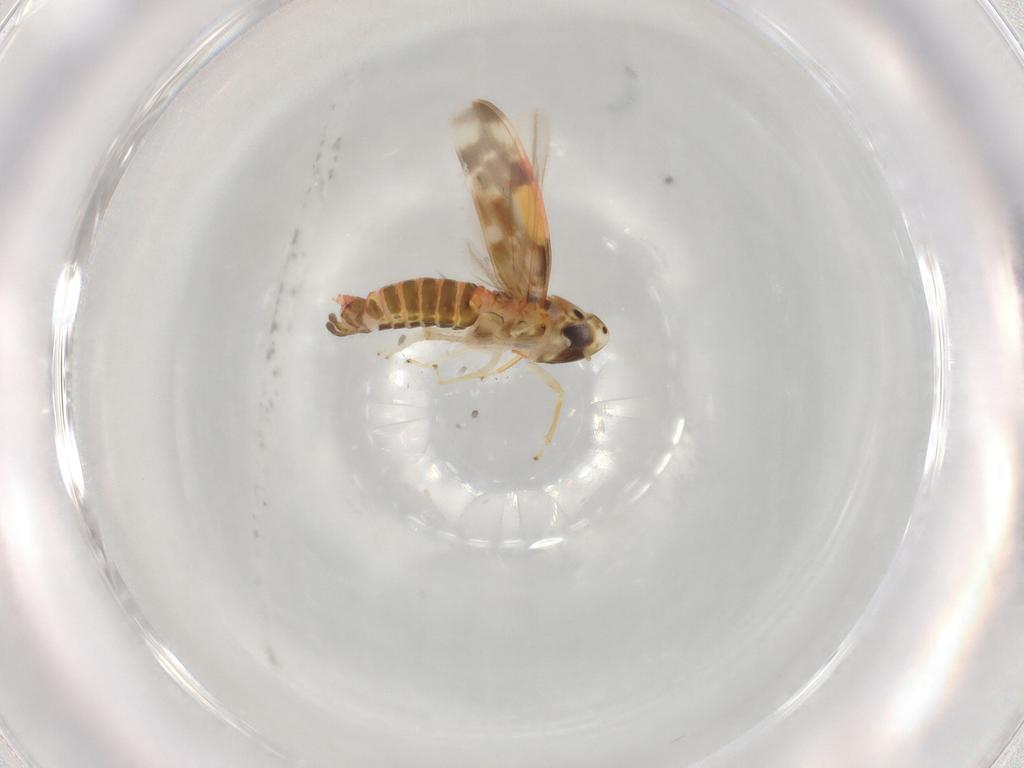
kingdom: Animalia
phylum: Arthropoda
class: Insecta
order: Hemiptera
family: Cicadellidae
